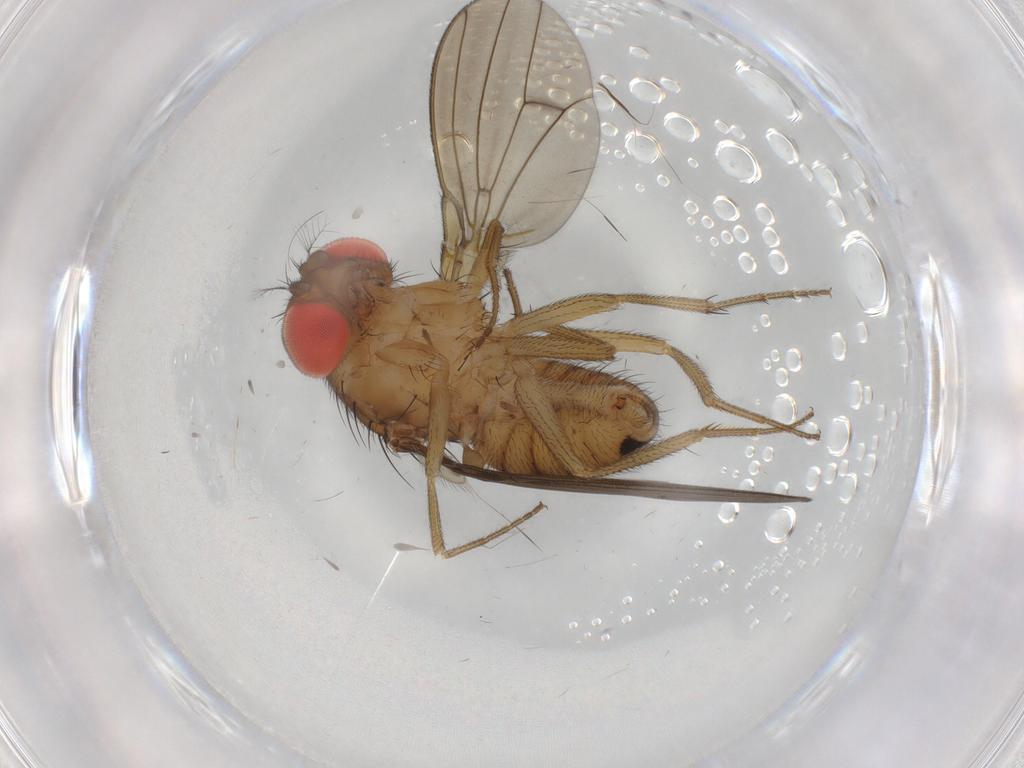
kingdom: Animalia
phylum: Arthropoda
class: Insecta
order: Diptera
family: Drosophilidae
